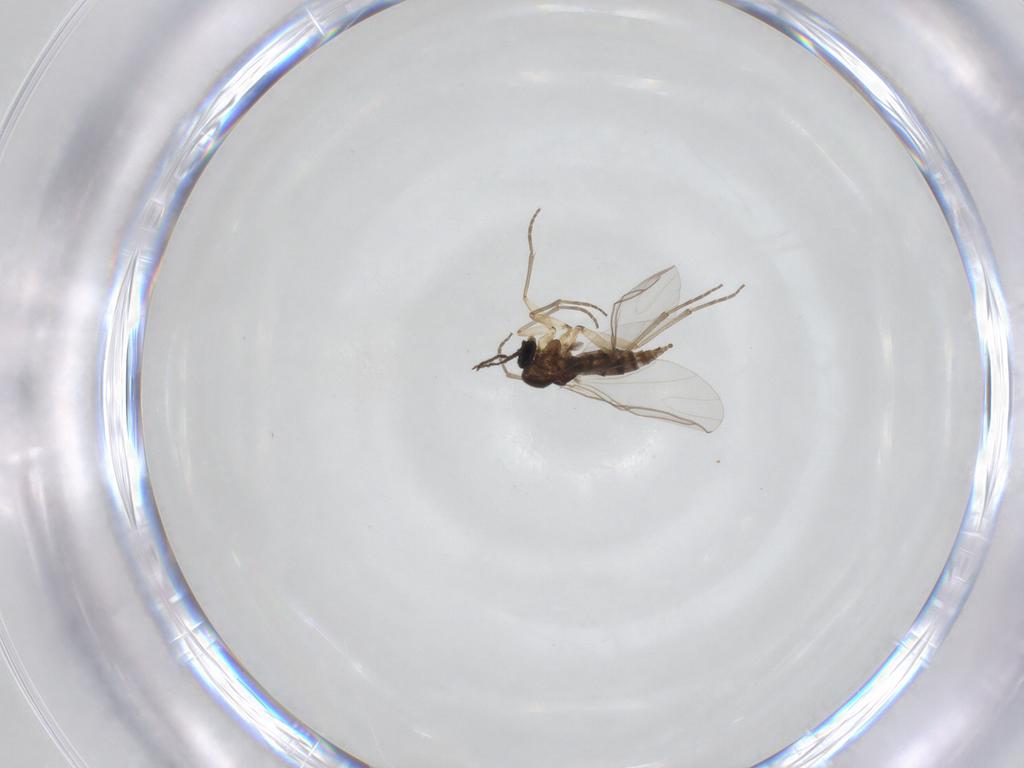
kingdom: Animalia
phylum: Arthropoda
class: Insecta
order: Diptera
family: Sciaridae
